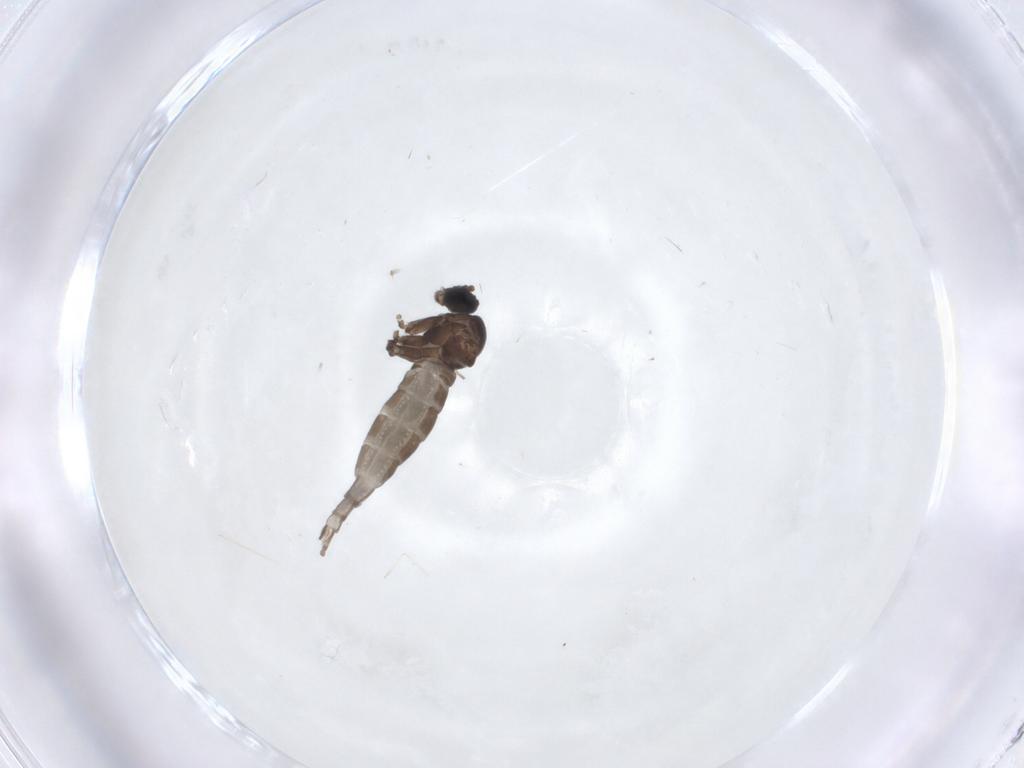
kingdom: Animalia
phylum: Arthropoda
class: Insecta
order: Diptera
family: Sciaridae
